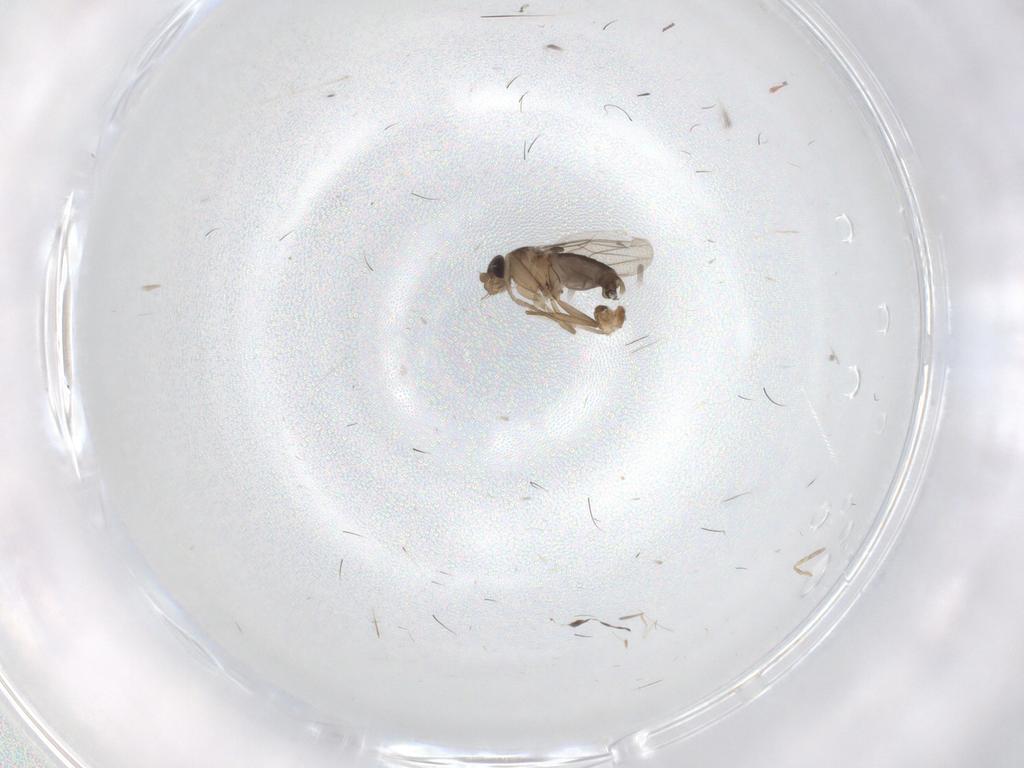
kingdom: Animalia
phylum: Arthropoda
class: Insecta
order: Diptera
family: Phoridae
